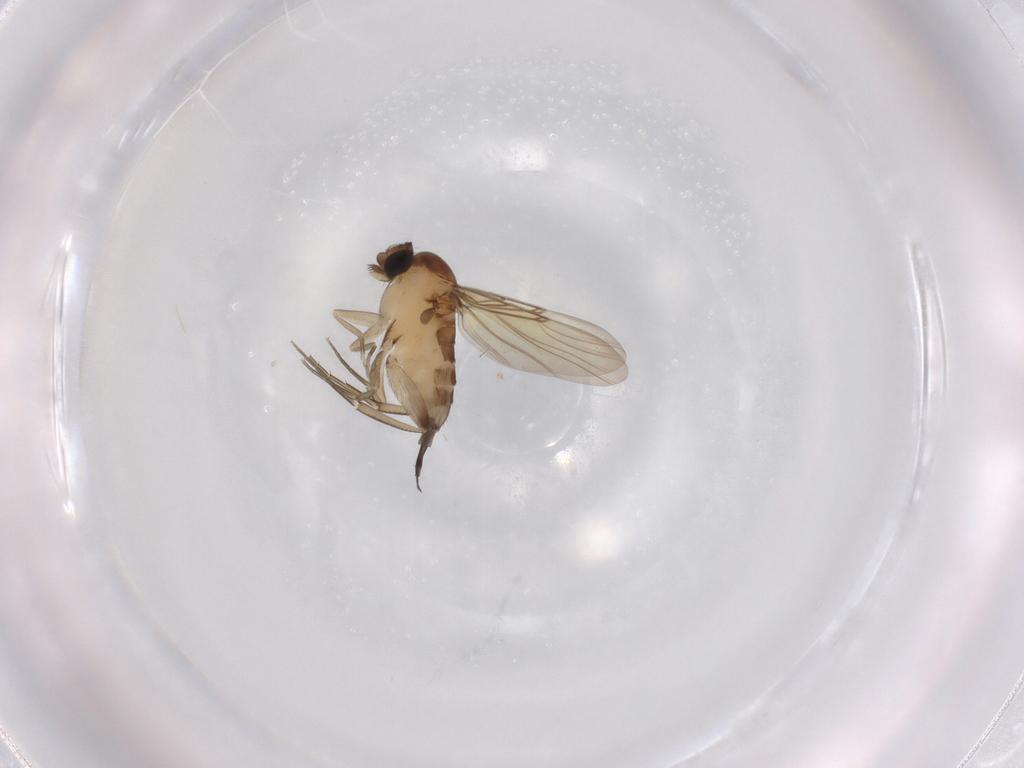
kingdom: Animalia
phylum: Arthropoda
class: Insecta
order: Diptera
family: Phoridae
